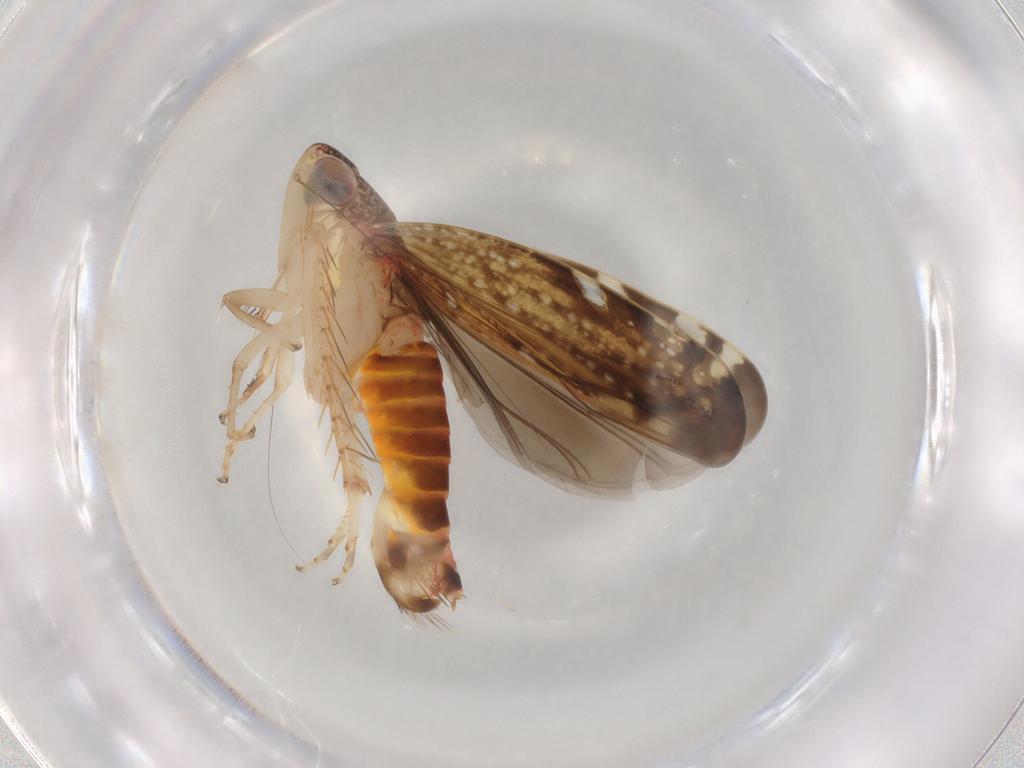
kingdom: Animalia
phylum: Arthropoda
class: Insecta
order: Hemiptera
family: Cicadellidae
